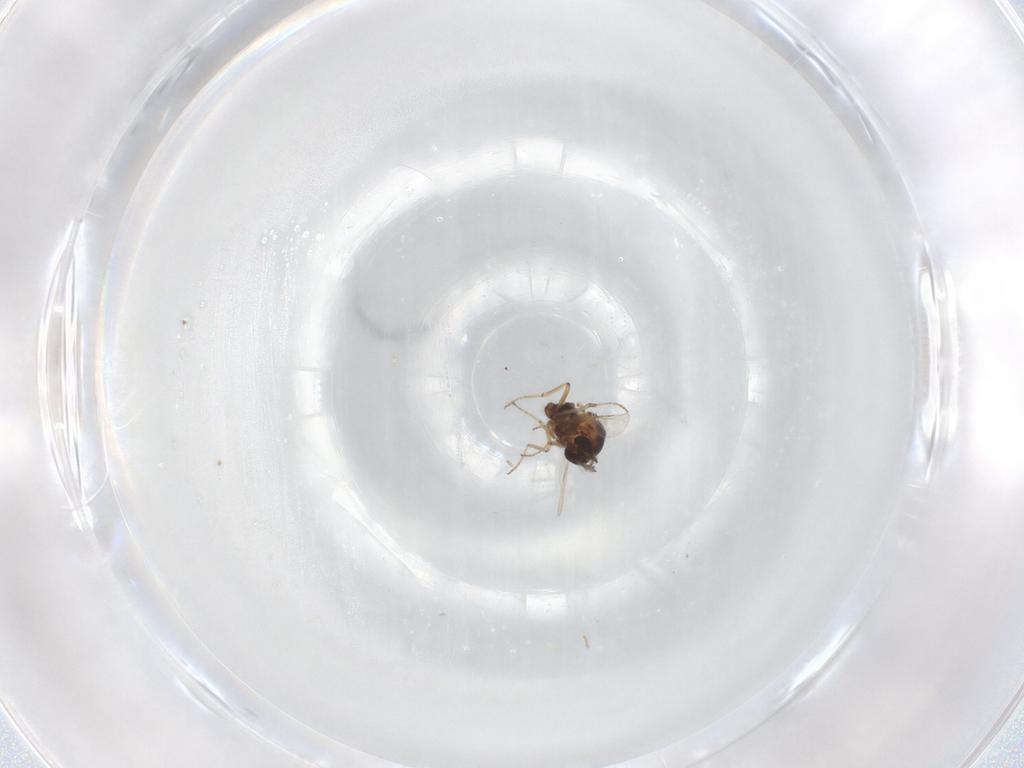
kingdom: Animalia
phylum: Arthropoda
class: Insecta
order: Diptera
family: Ceratopogonidae
